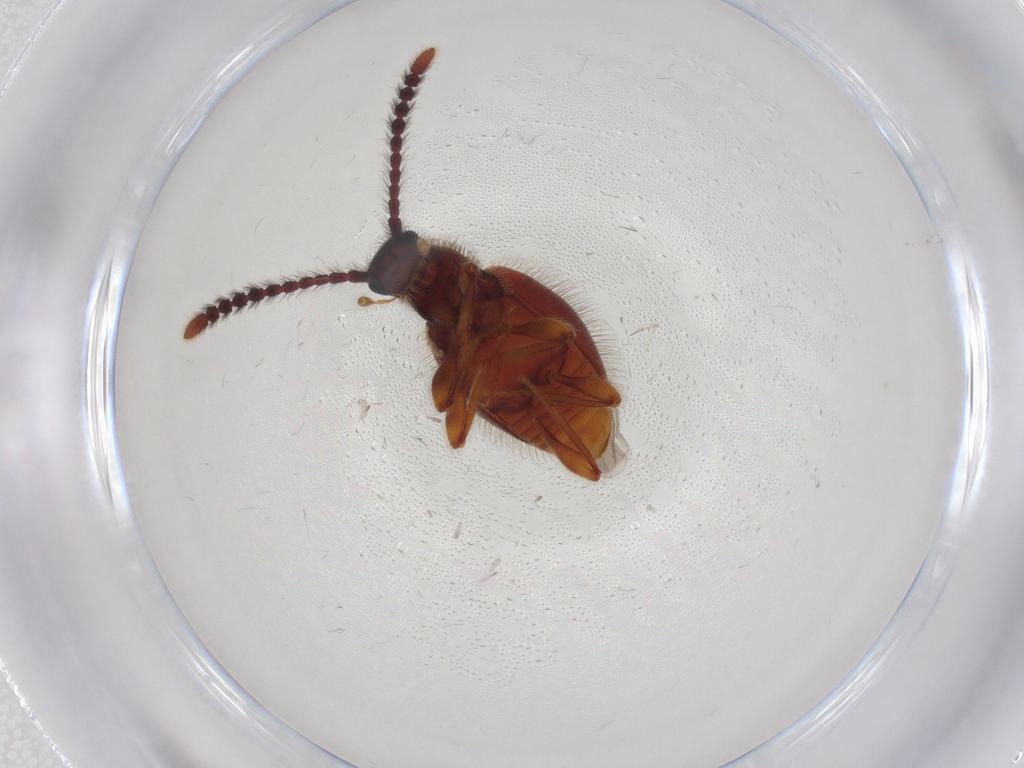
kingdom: Animalia
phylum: Arthropoda
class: Insecta
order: Coleoptera
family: Staphylinidae
